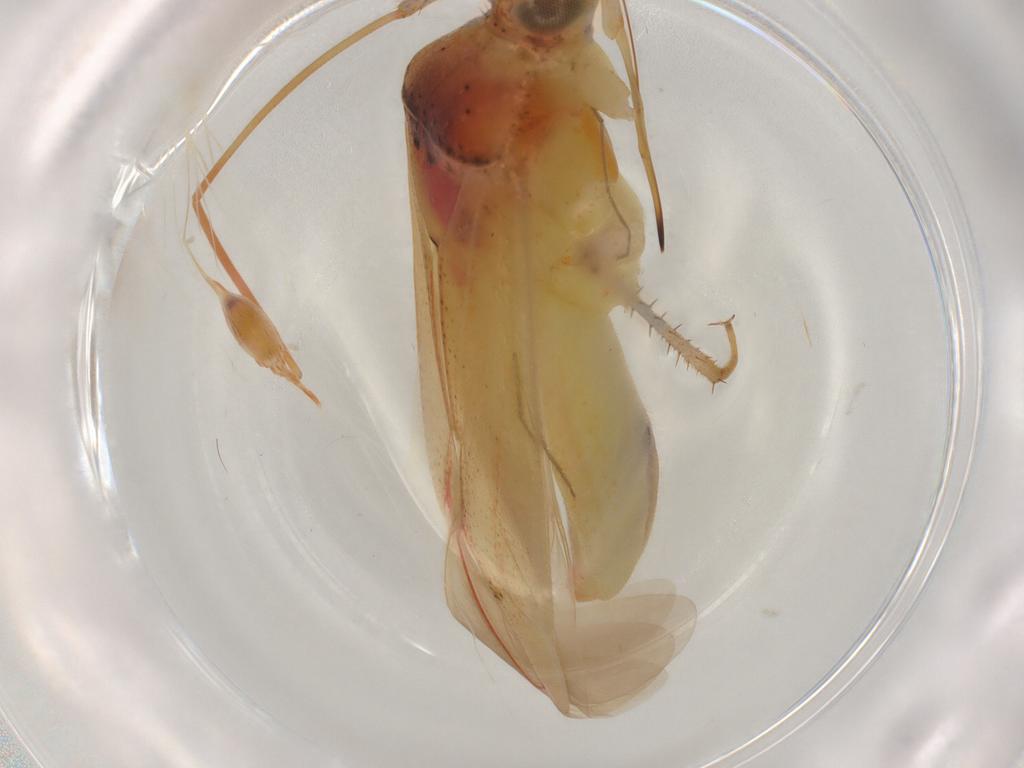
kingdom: Animalia
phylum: Arthropoda
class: Insecta
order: Hemiptera
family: Miridae
